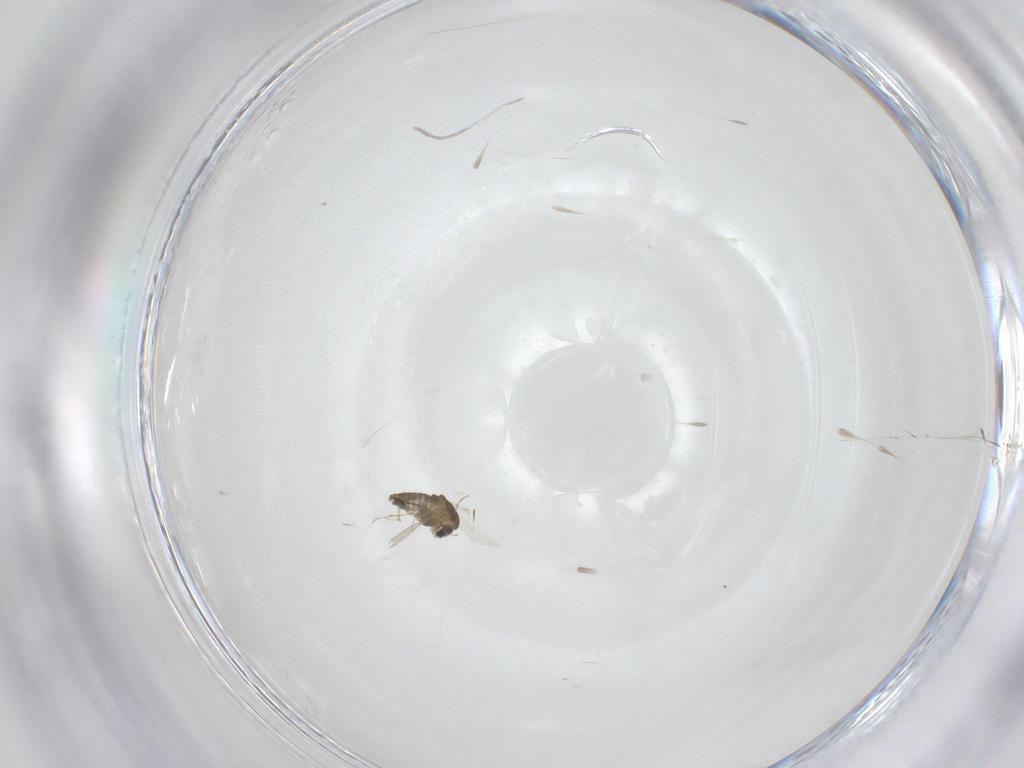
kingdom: Animalia
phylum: Arthropoda
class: Insecta
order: Diptera
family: Chironomidae
